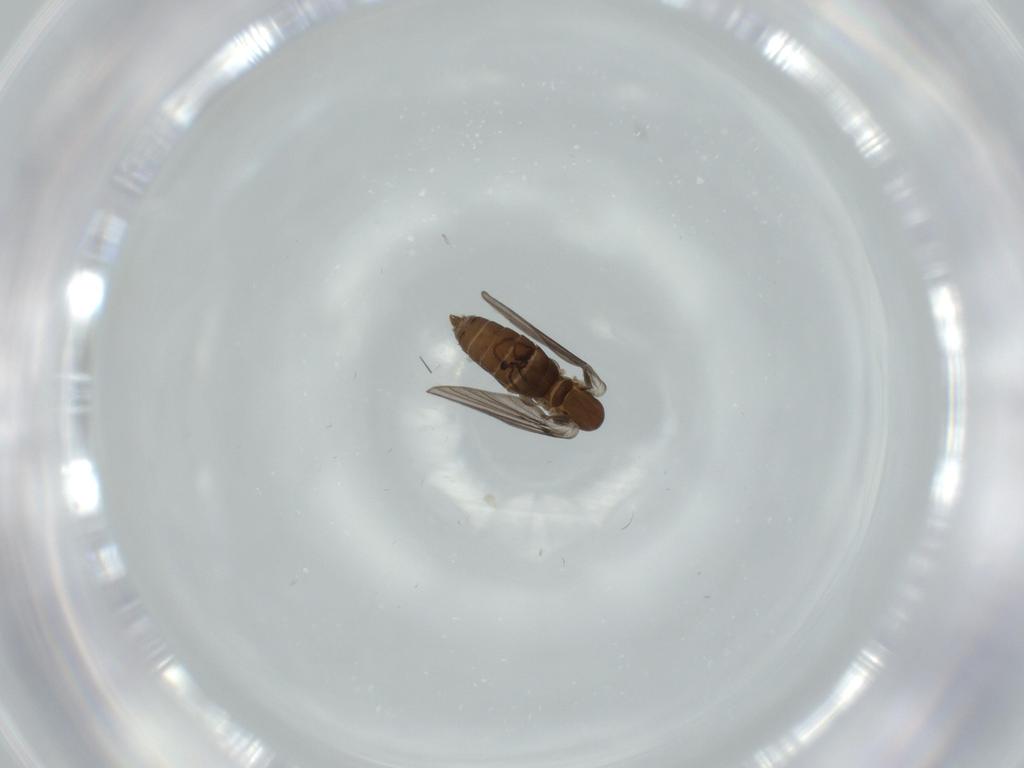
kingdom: Animalia
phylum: Arthropoda
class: Insecta
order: Diptera
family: Psychodidae
